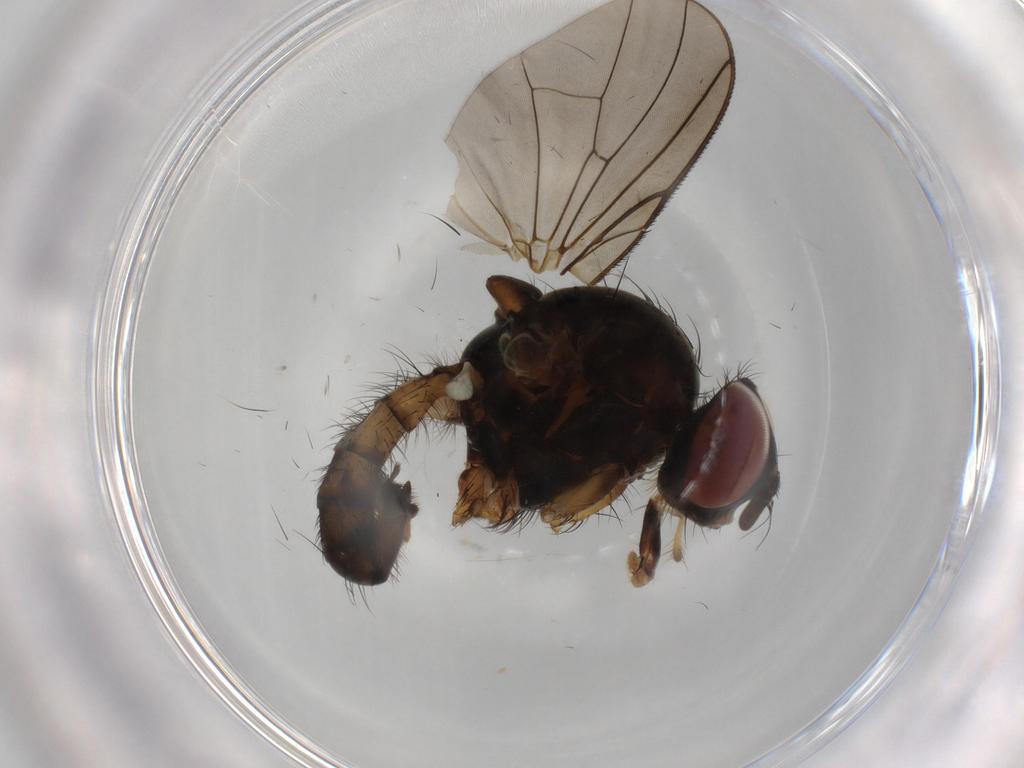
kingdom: Animalia
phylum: Arthropoda
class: Insecta
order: Diptera
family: Anthomyiidae
